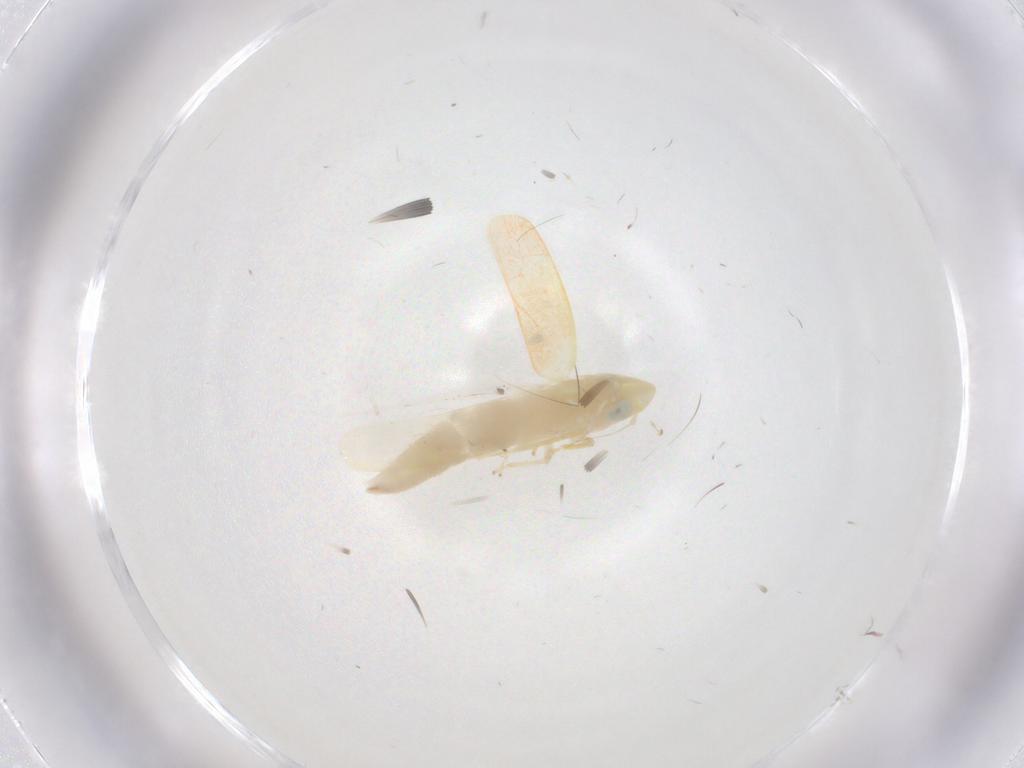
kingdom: Animalia
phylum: Arthropoda
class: Insecta
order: Hemiptera
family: Cicadellidae
